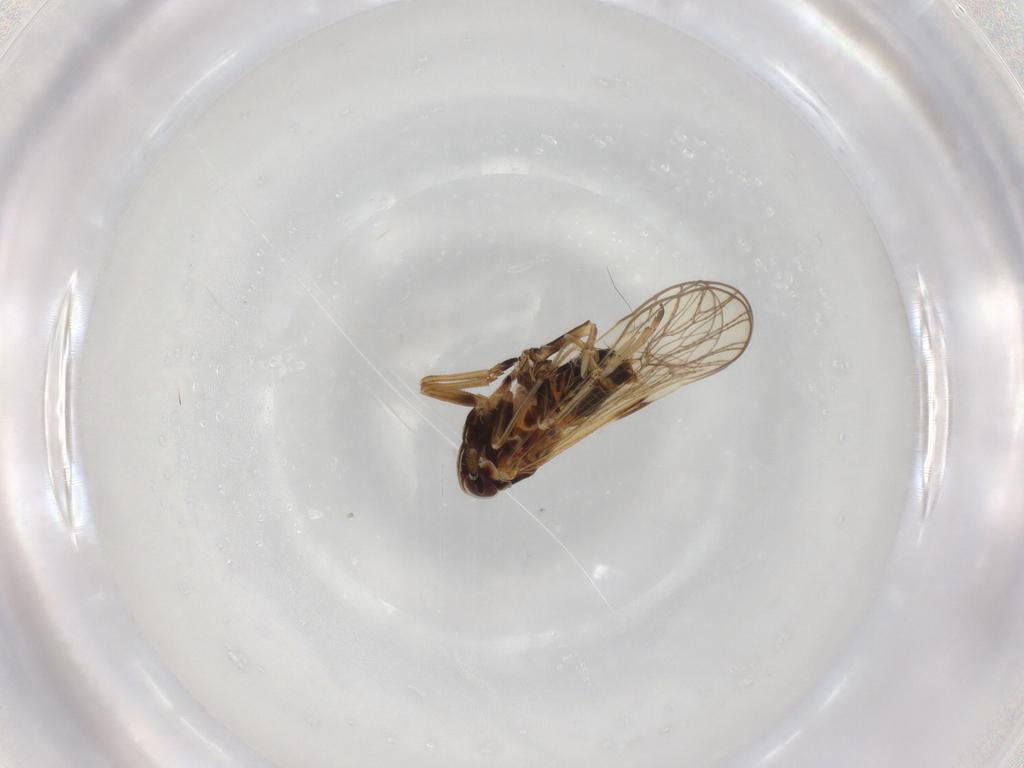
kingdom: Animalia
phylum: Arthropoda
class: Insecta
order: Hemiptera
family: Delphacidae
